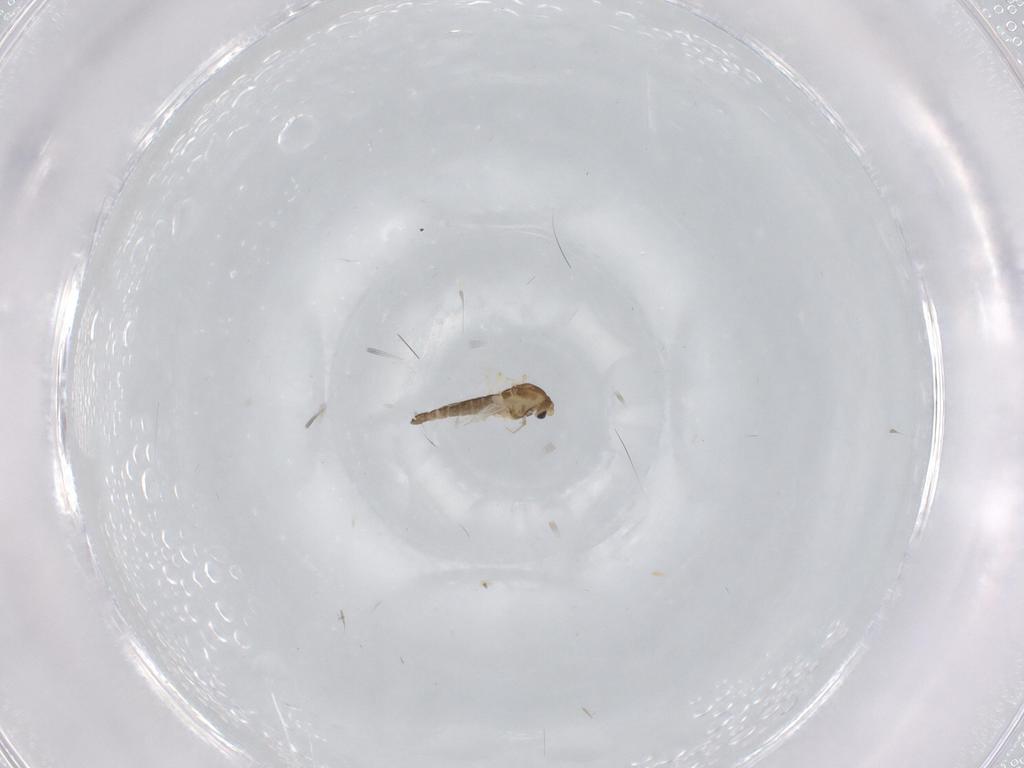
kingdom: Animalia
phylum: Arthropoda
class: Insecta
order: Diptera
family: Chironomidae
